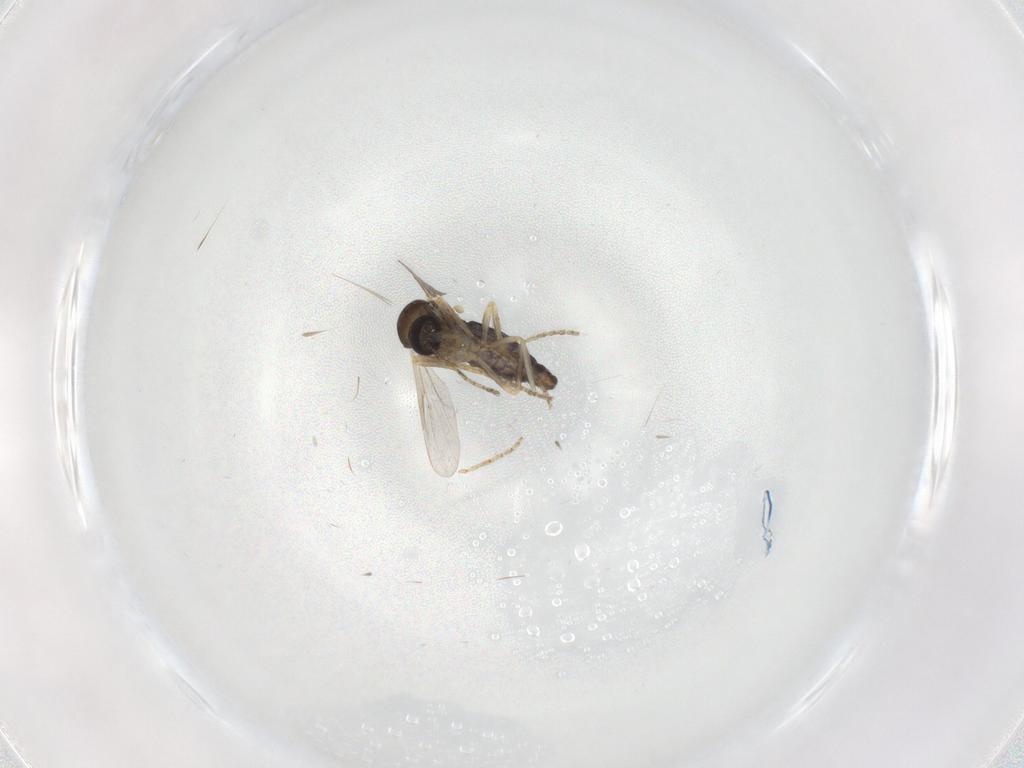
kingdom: Animalia
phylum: Arthropoda
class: Insecta
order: Diptera
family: Ceratopogonidae
